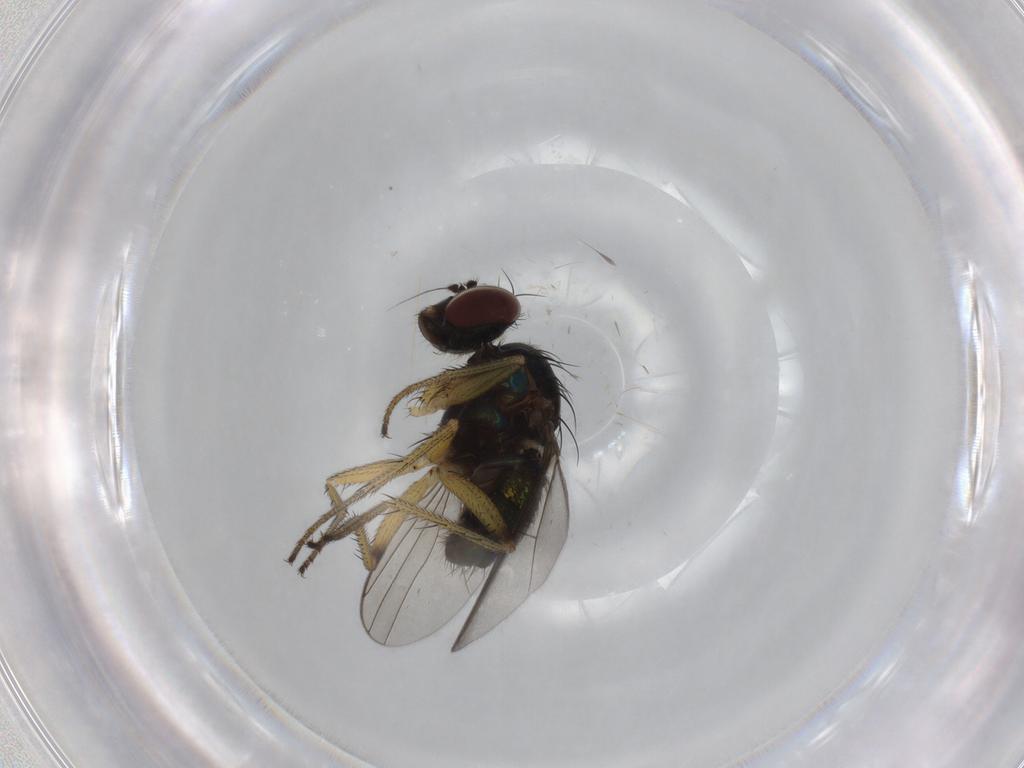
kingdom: Animalia
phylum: Arthropoda
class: Insecta
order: Diptera
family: Dolichopodidae
